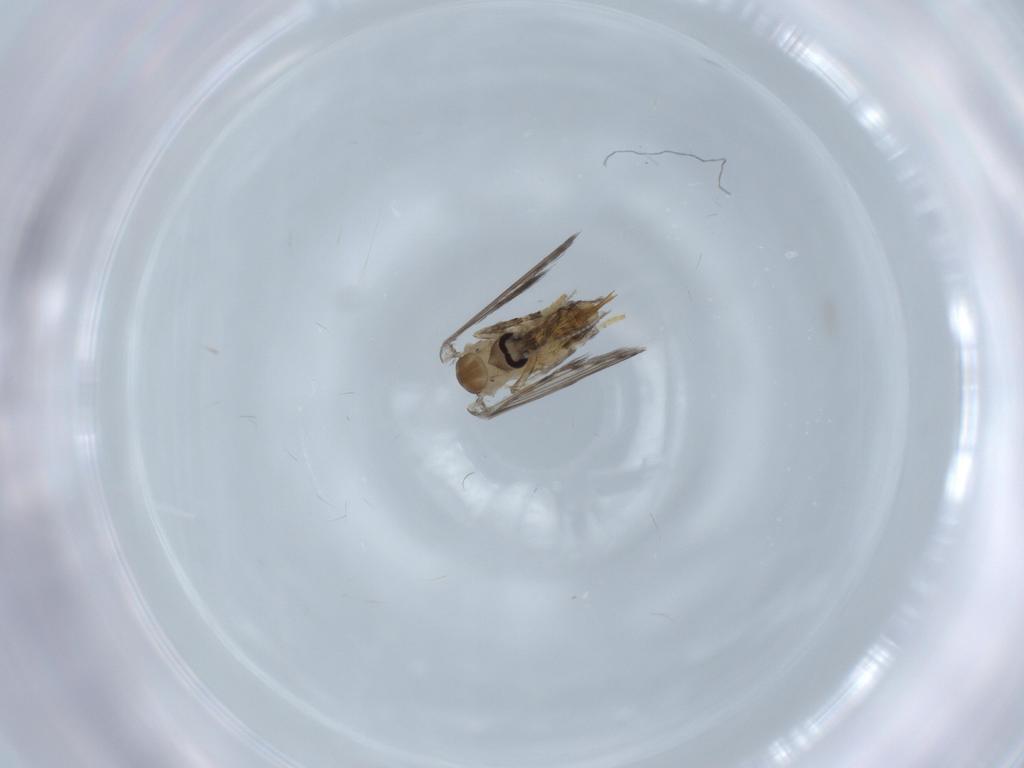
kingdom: Animalia
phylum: Arthropoda
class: Insecta
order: Diptera
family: Psychodidae
